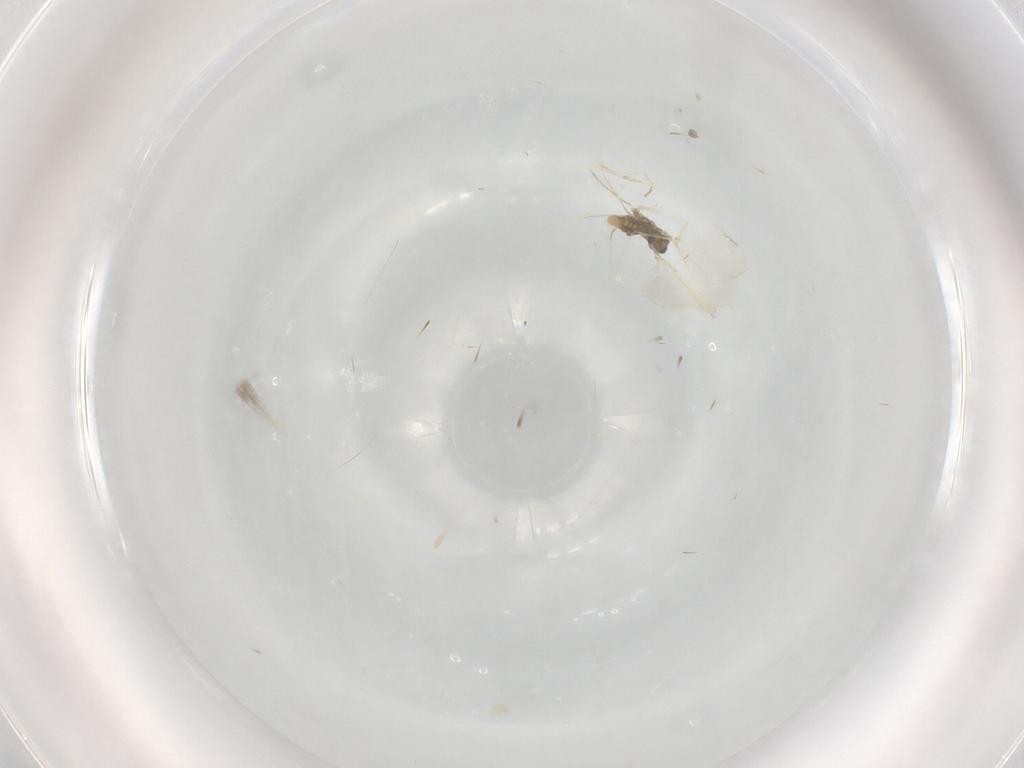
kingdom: Animalia
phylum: Arthropoda
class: Insecta
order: Diptera
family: Cecidomyiidae
